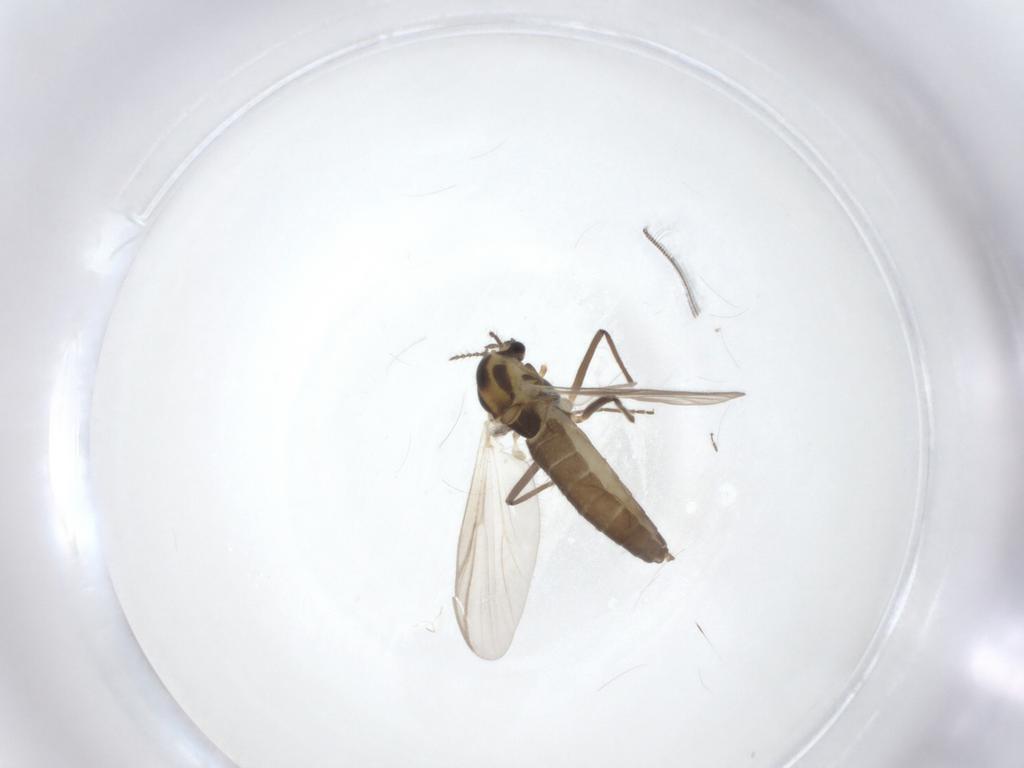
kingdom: Animalia
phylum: Arthropoda
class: Insecta
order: Diptera
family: Chironomidae
